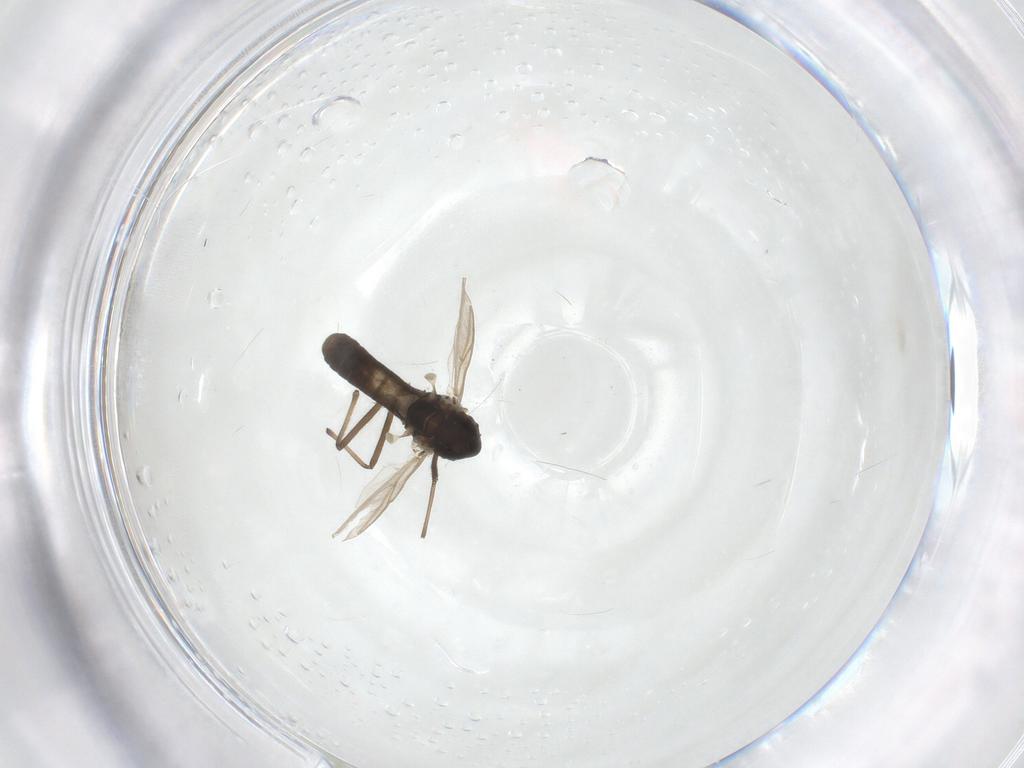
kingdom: Animalia
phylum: Arthropoda
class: Insecta
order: Diptera
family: Chironomidae
